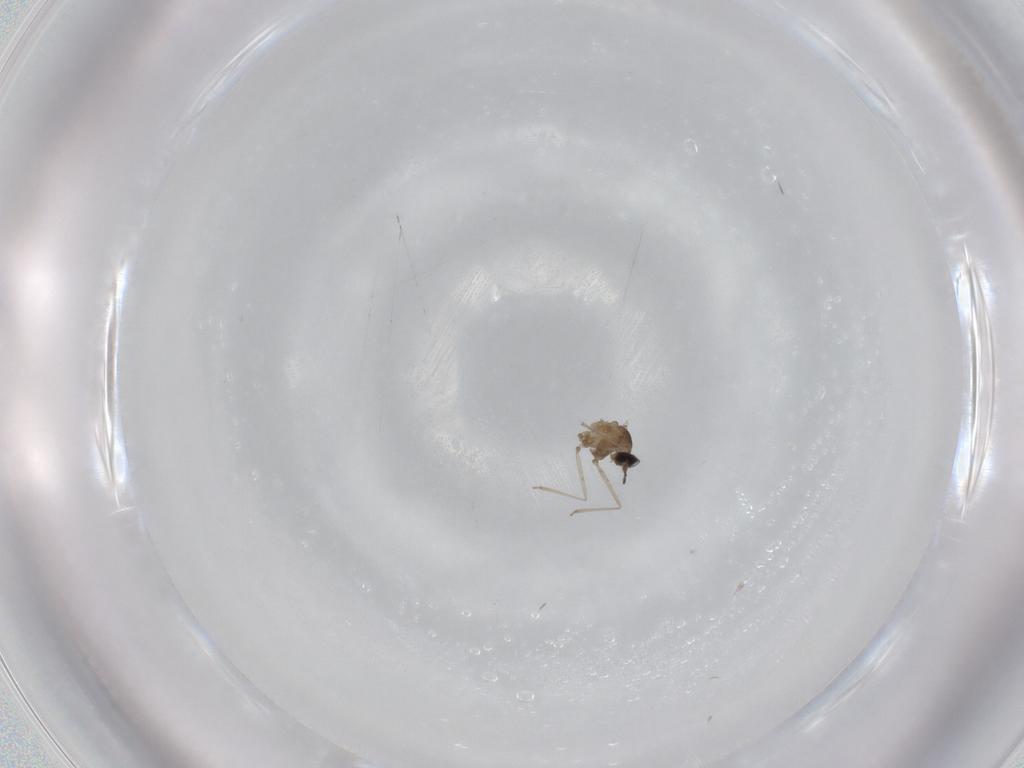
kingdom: Animalia
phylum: Arthropoda
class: Insecta
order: Diptera
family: Cecidomyiidae
